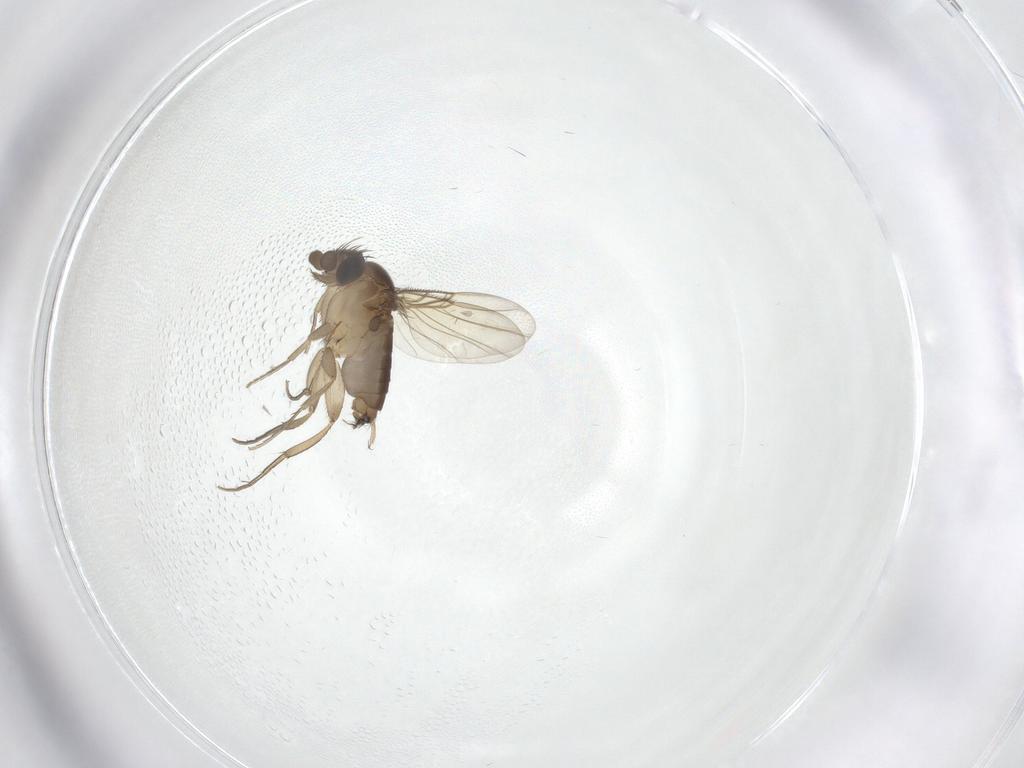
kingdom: Animalia
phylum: Arthropoda
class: Insecta
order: Diptera
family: Phoridae
